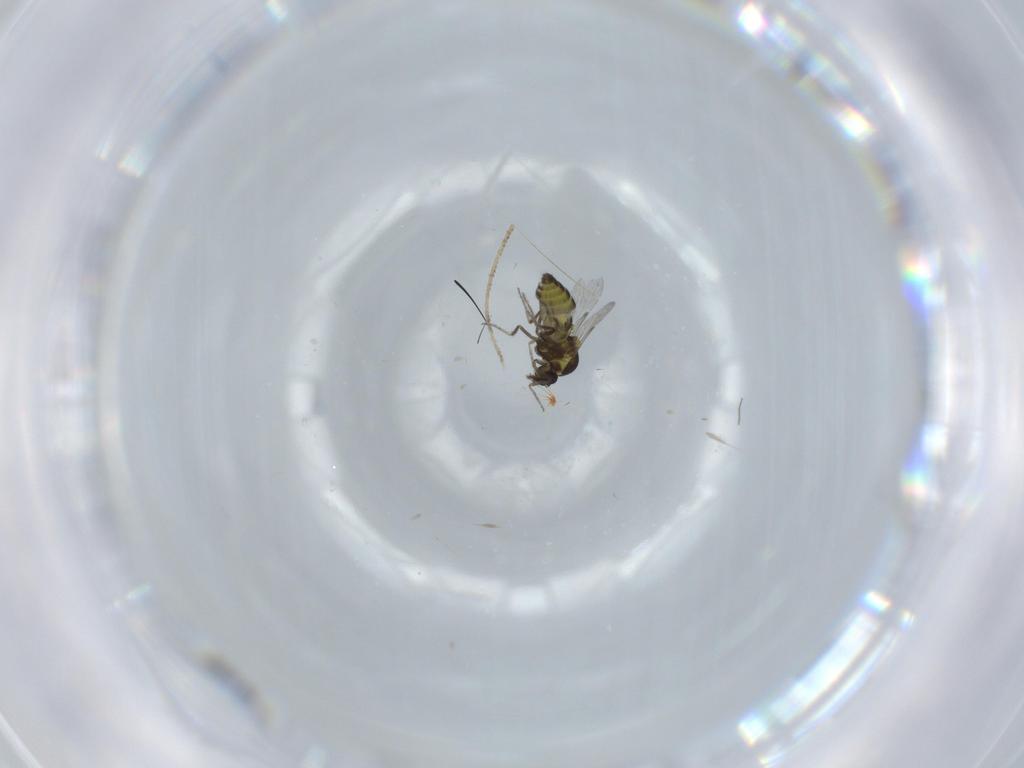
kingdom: Animalia
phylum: Arthropoda
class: Insecta
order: Diptera
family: Ceratopogonidae
